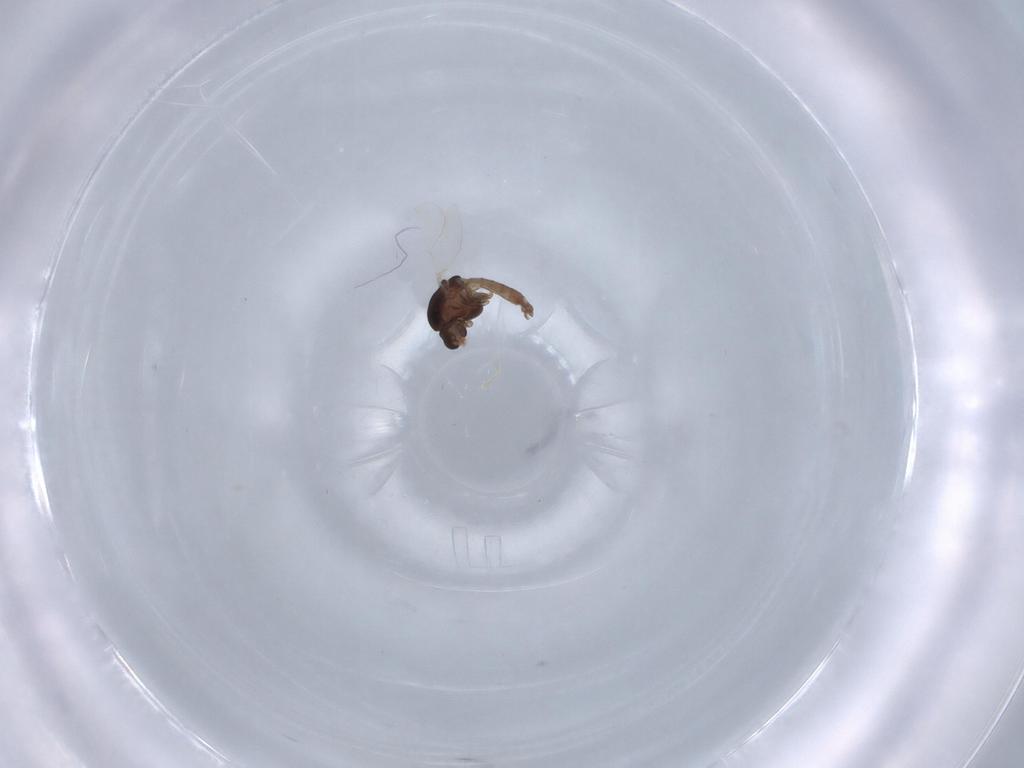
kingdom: Animalia
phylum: Arthropoda
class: Insecta
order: Diptera
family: Chironomidae
